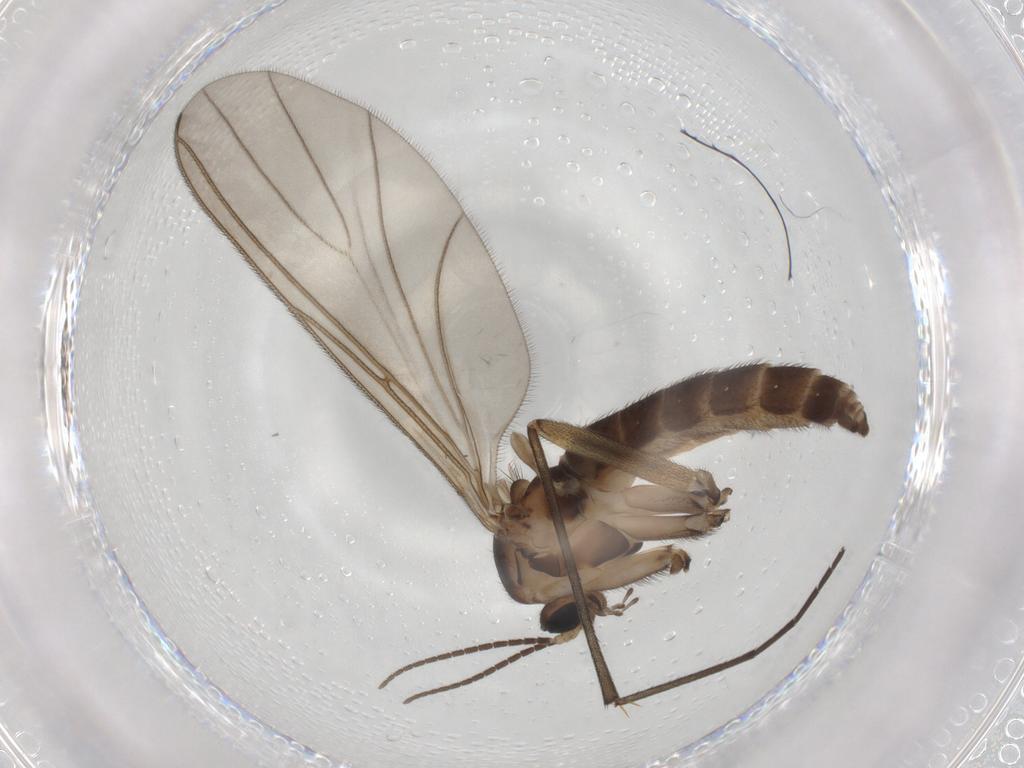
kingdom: Animalia
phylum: Arthropoda
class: Insecta
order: Diptera
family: Sciaridae
